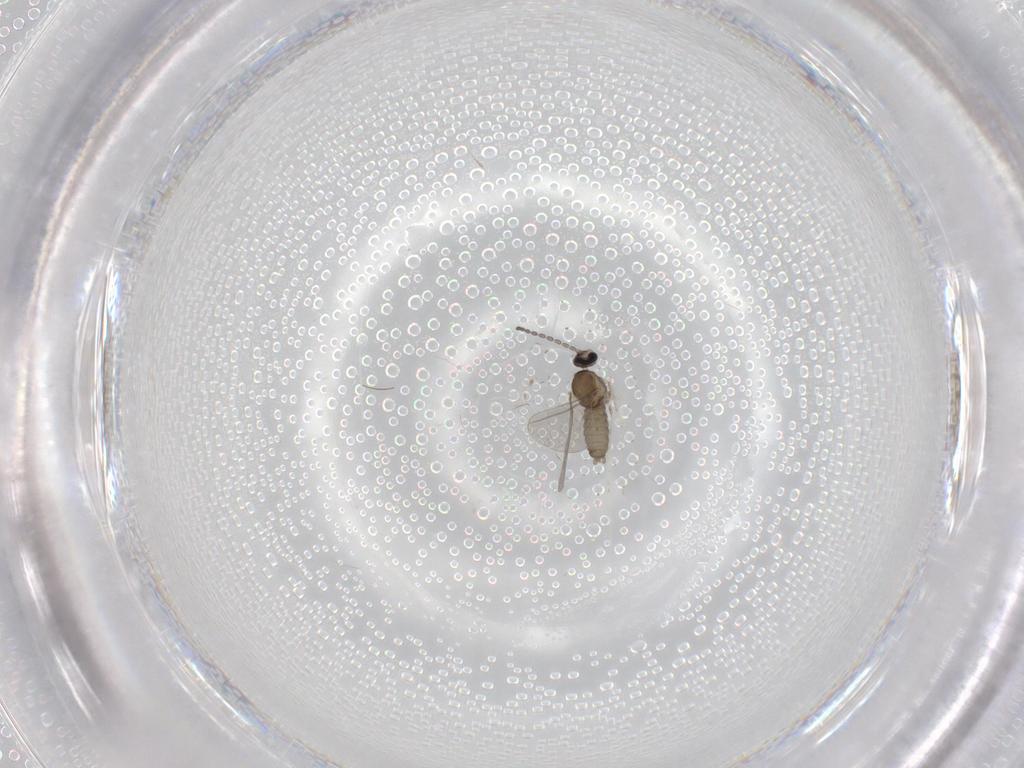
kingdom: Animalia
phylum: Arthropoda
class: Insecta
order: Diptera
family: Cecidomyiidae
